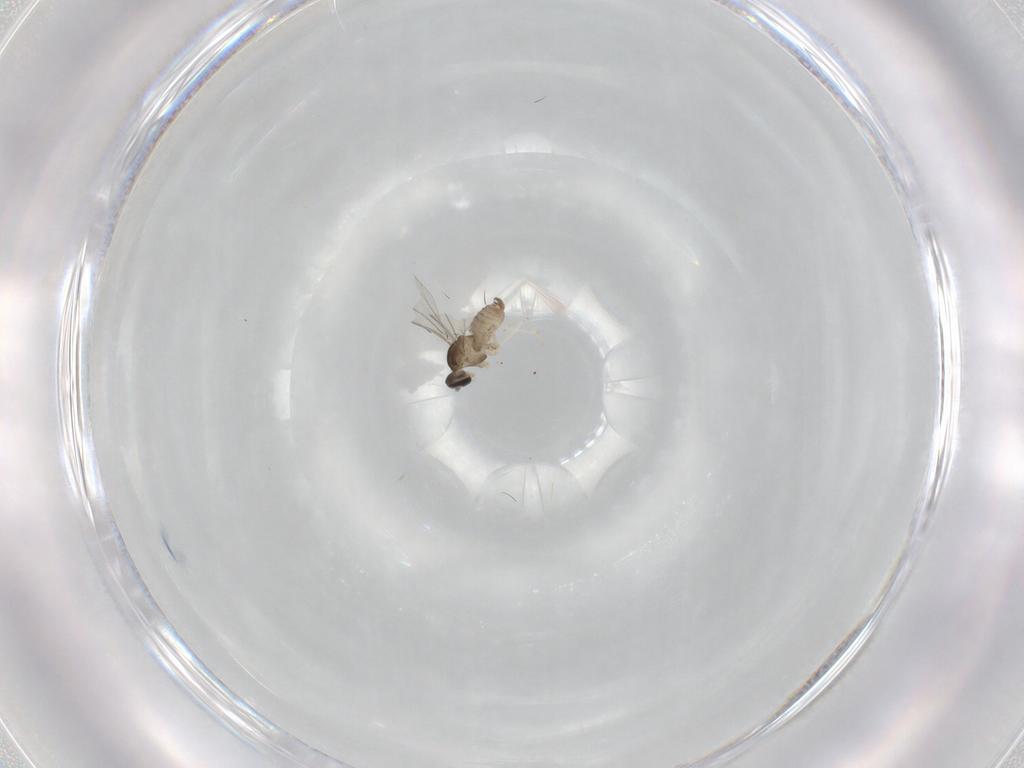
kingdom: Animalia
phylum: Arthropoda
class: Insecta
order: Diptera
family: Cecidomyiidae
